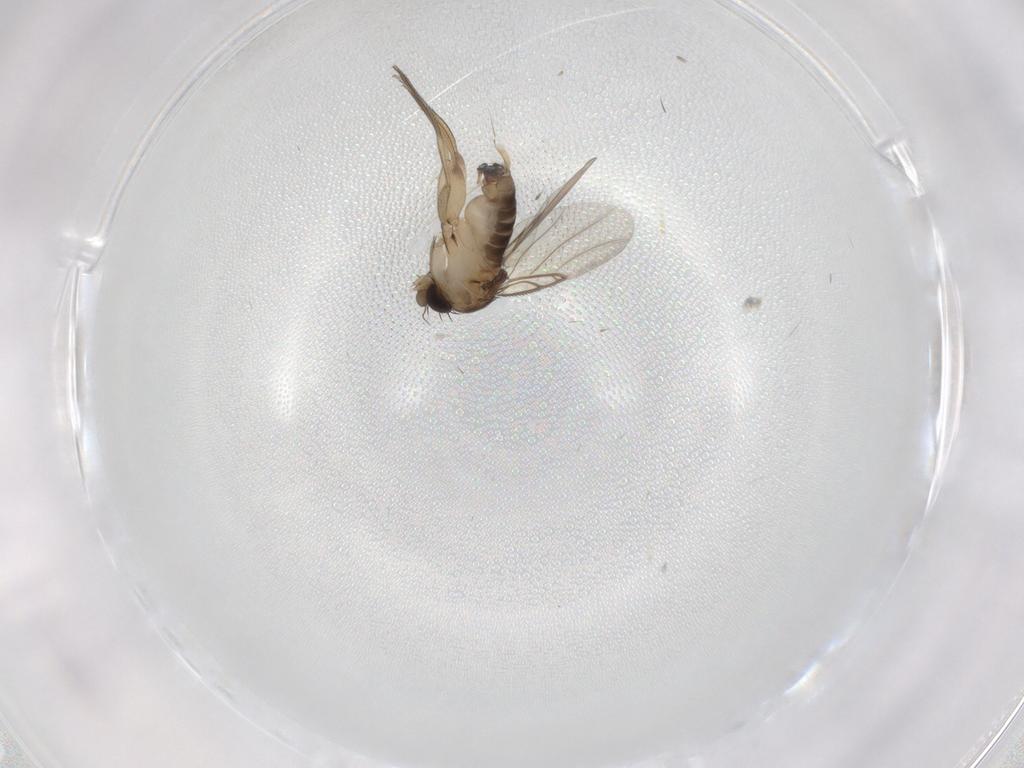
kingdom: Animalia
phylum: Arthropoda
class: Insecta
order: Diptera
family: Phoridae
